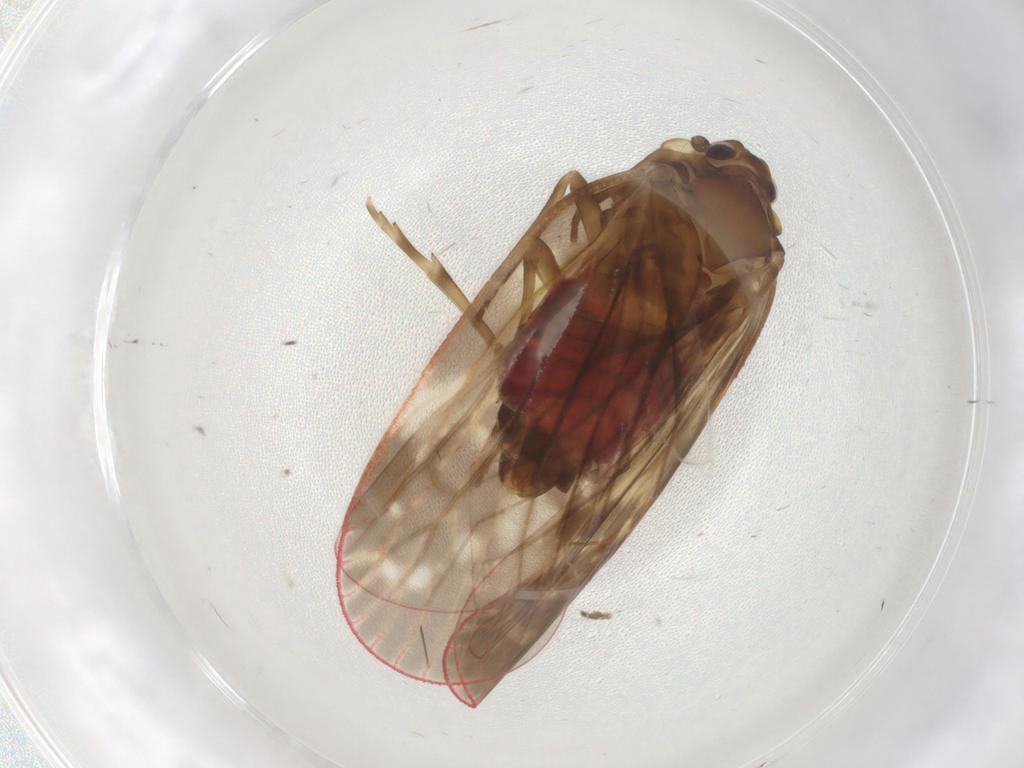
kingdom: Animalia
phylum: Arthropoda
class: Insecta
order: Hemiptera
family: Achilidae
